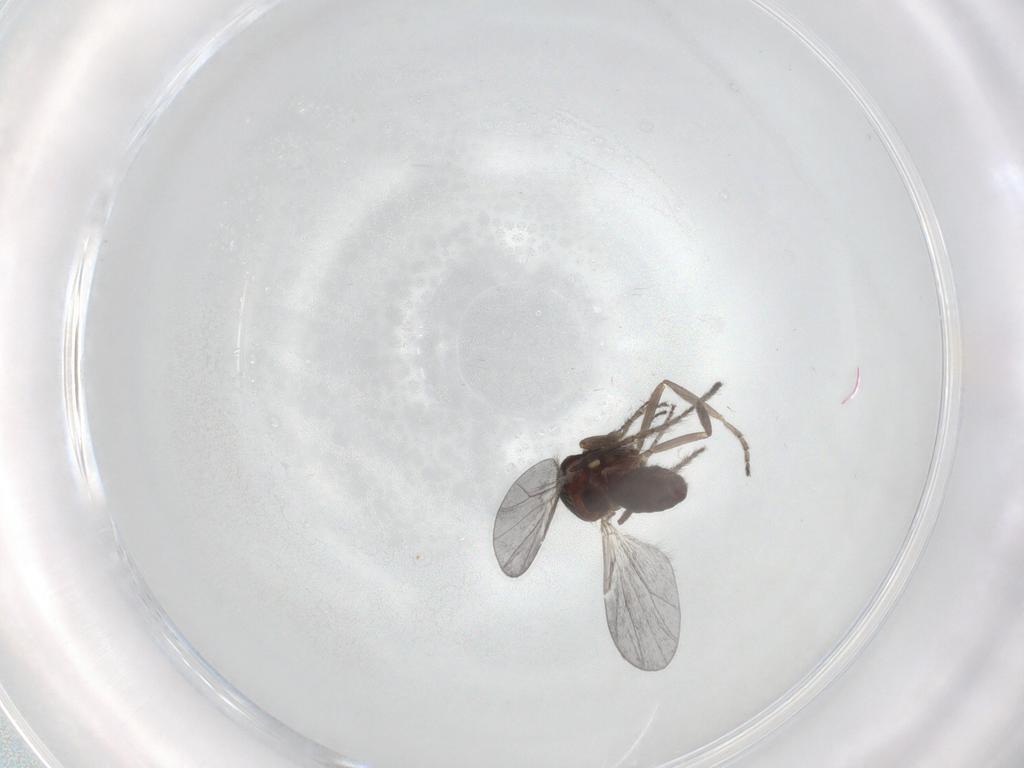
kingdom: Animalia
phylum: Arthropoda
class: Insecta
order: Diptera
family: Ceratopogonidae
